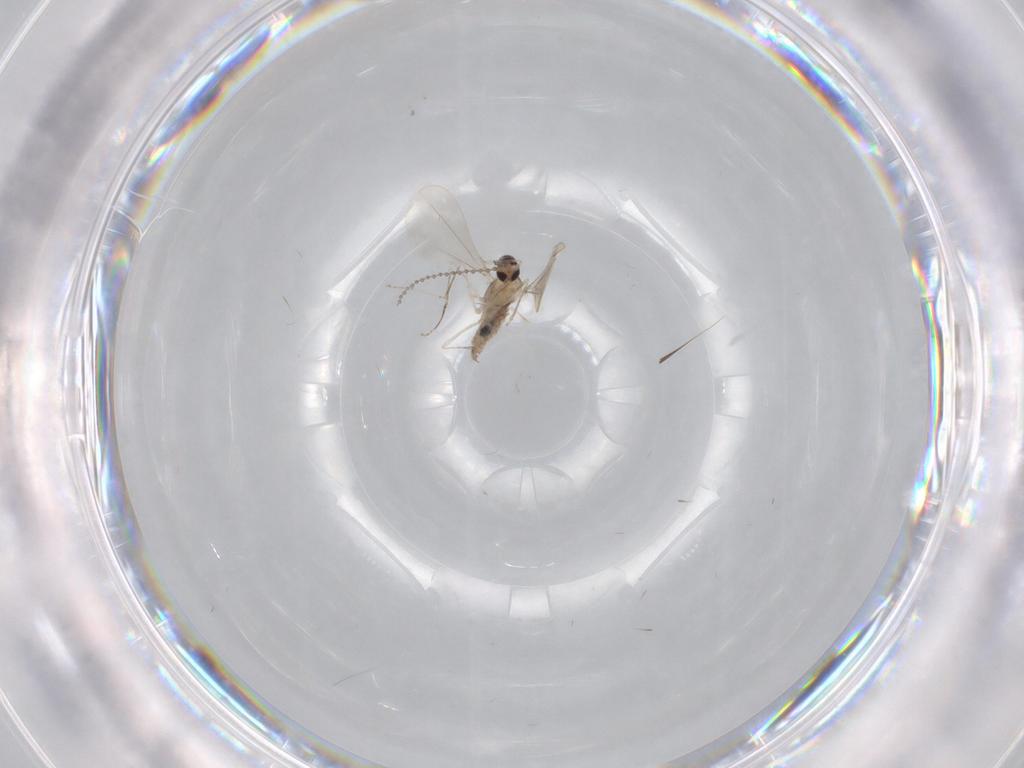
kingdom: Animalia
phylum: Arthropoda
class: Insecta
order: Diptera
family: Cecidomyiidae
